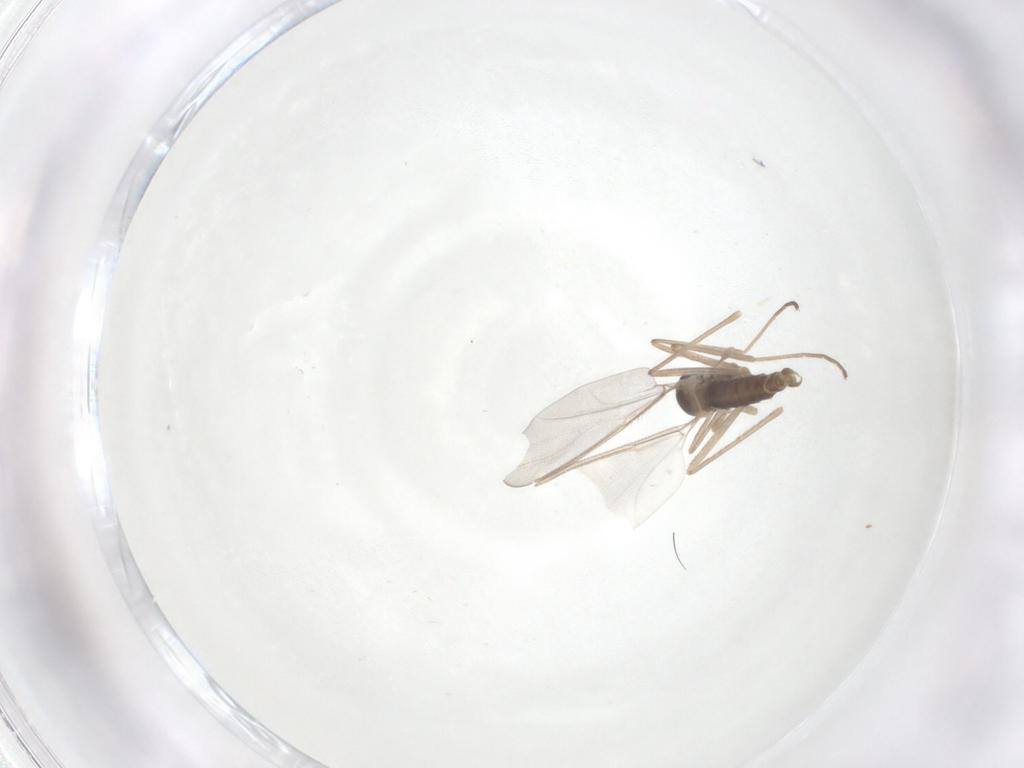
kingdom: Animalia
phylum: Arthropoda
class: Insecta
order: Diptera
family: Cecidomyiidae
